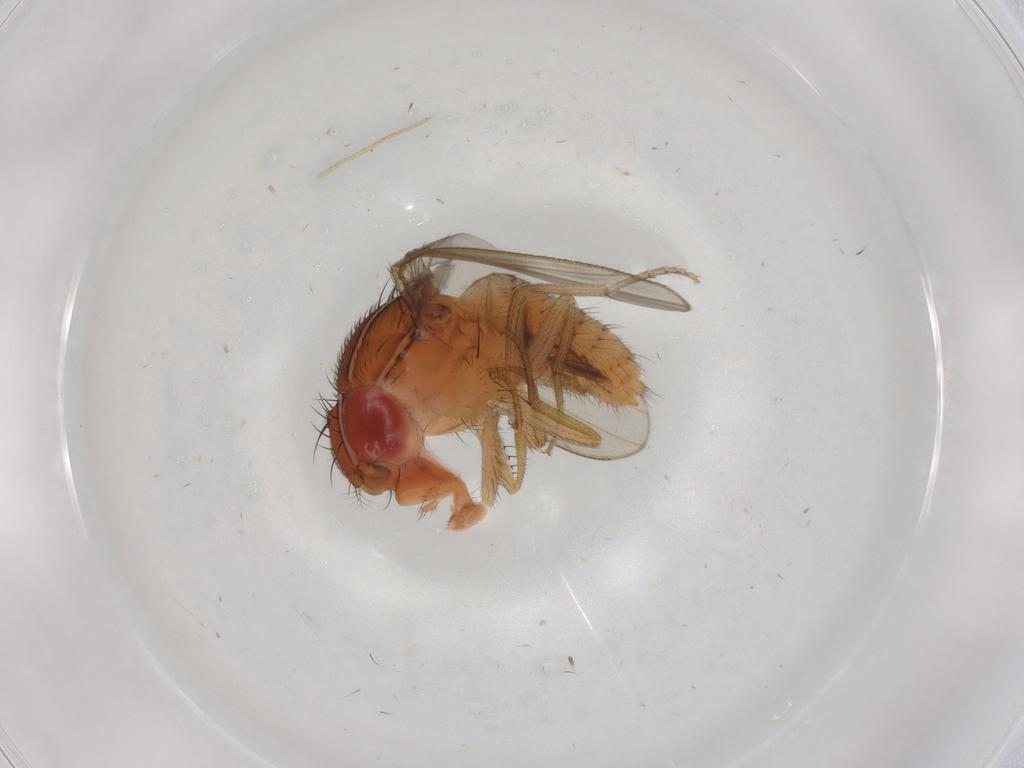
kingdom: Animalia
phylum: Arthropoda
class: Insecta
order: Diptera
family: Drosophilidae
